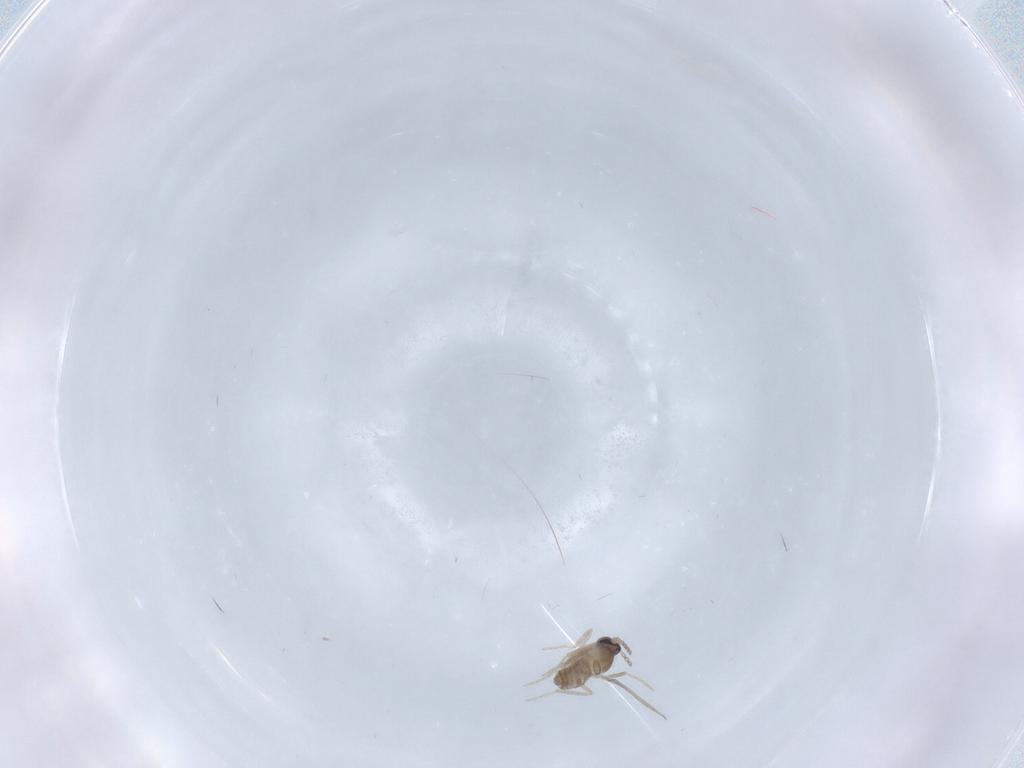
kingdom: Animalia
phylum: Arthropoda
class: Insecta
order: Diptera
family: Cecidomyiidae
